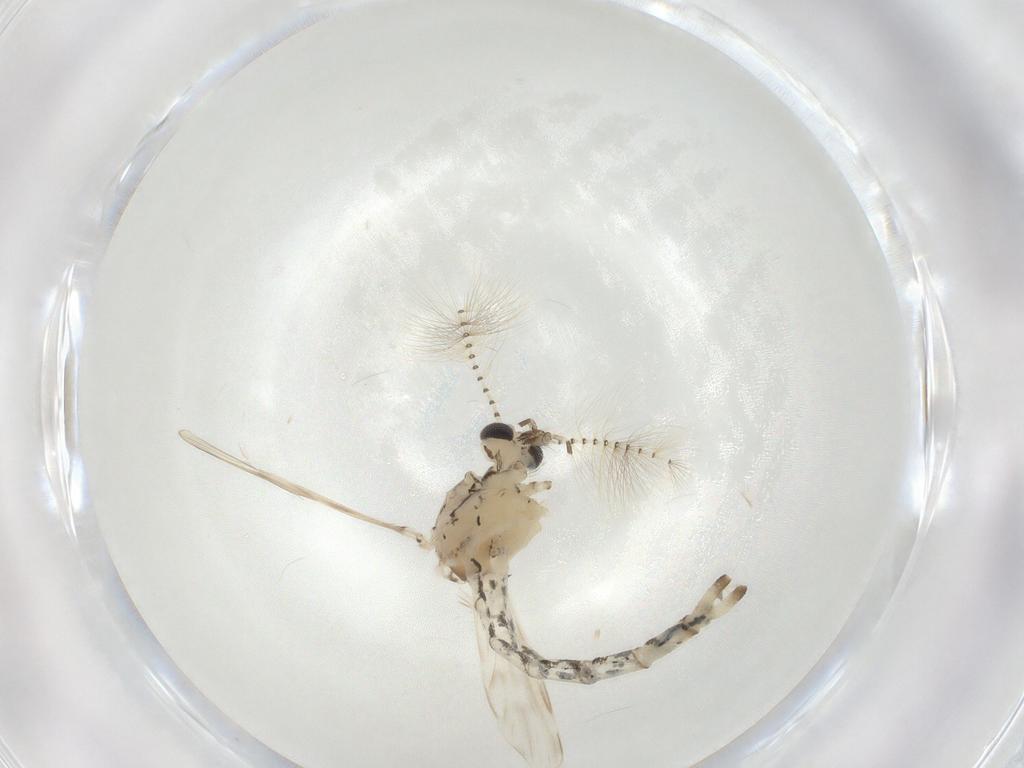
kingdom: Animalia
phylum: Arthropoda
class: Insecta
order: Diptera
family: Chaoboridae
